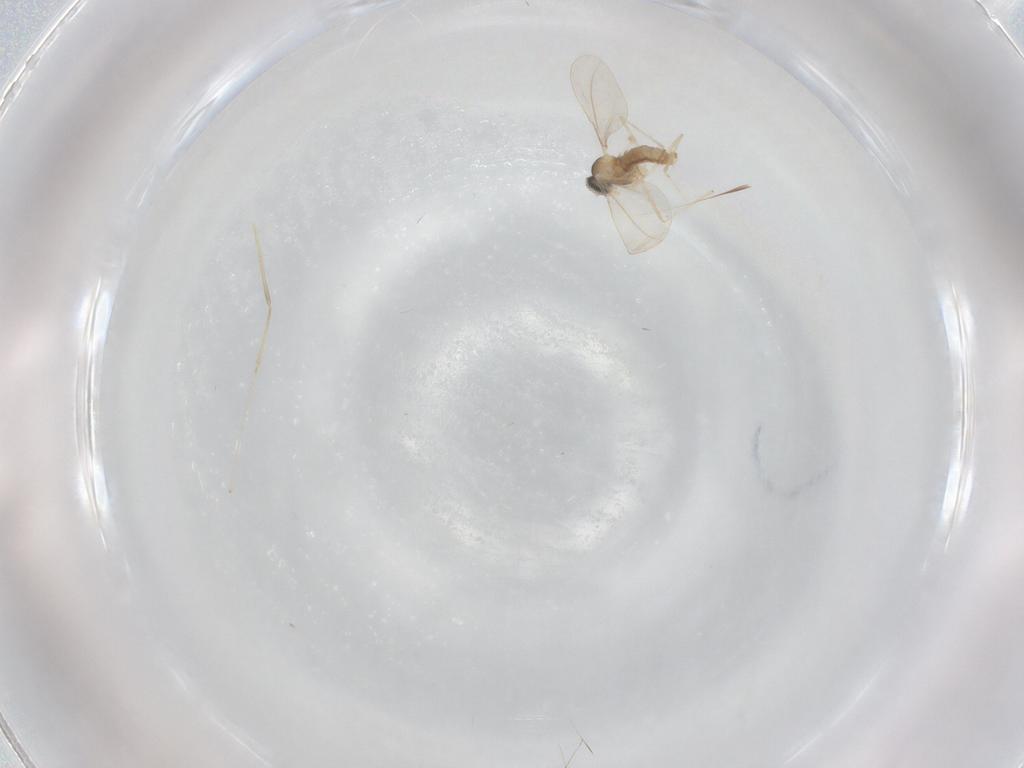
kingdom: Animalia
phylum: Arthropoda
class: Insecta
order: Diptera
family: Cecidomyiidae
